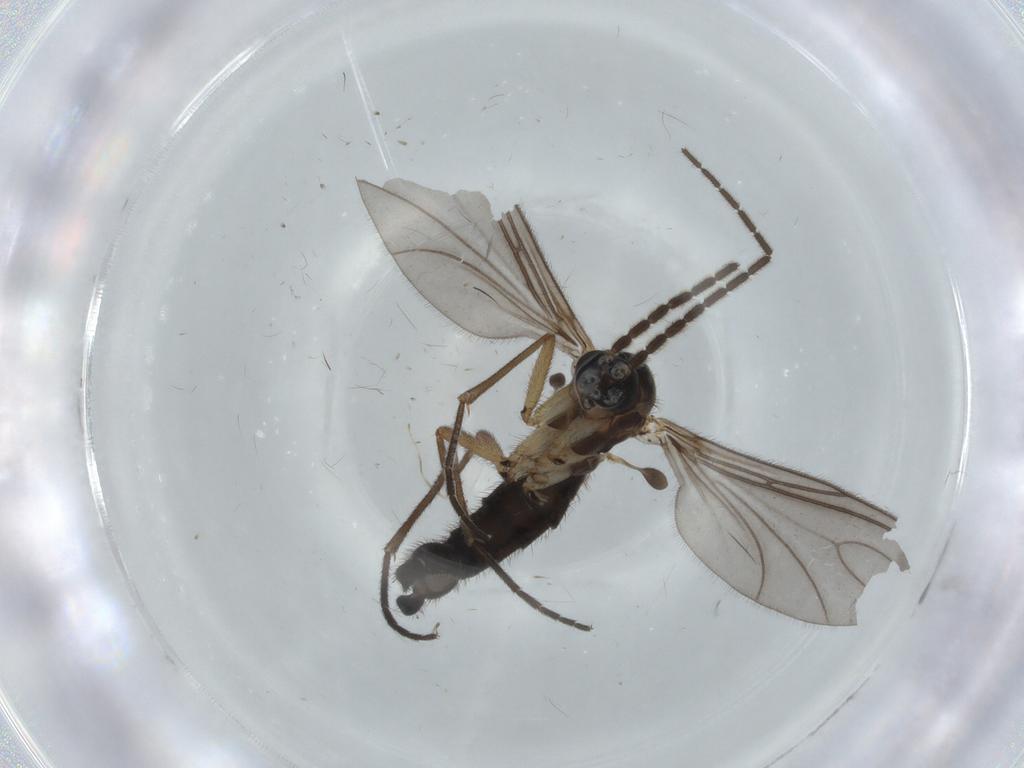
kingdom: Animalia
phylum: Arthropoda
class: Insecta
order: Diptera
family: Sciaridae
